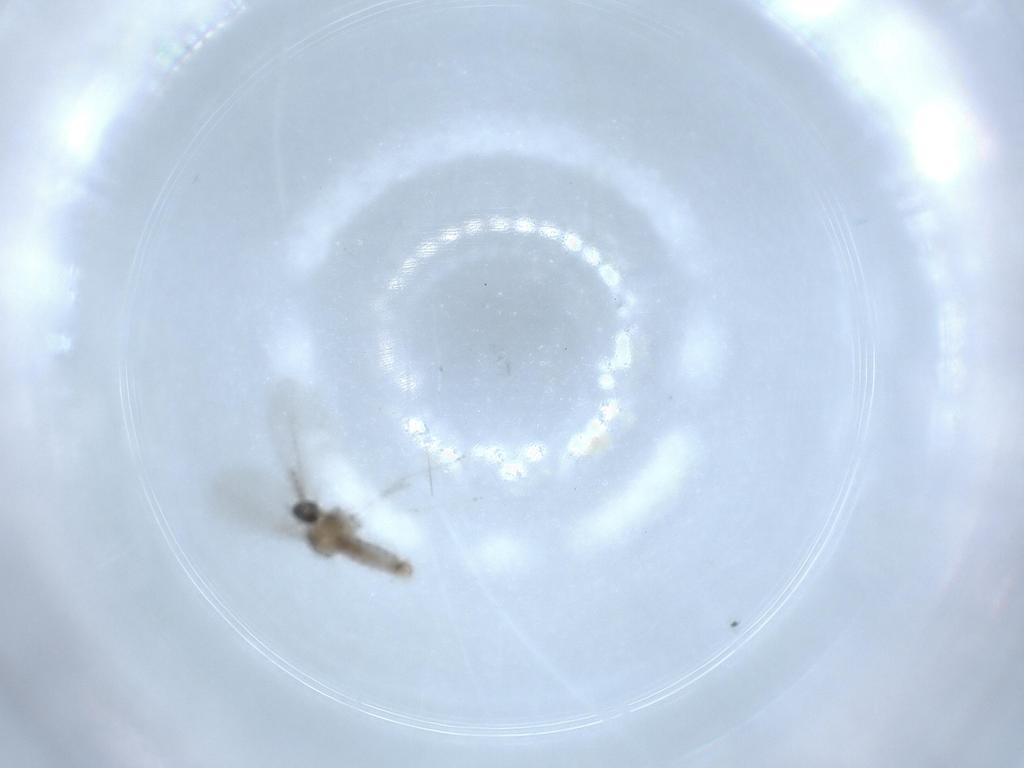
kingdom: Animalia
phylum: Arthropoda
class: Insecta
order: Diptera
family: Phoridae
